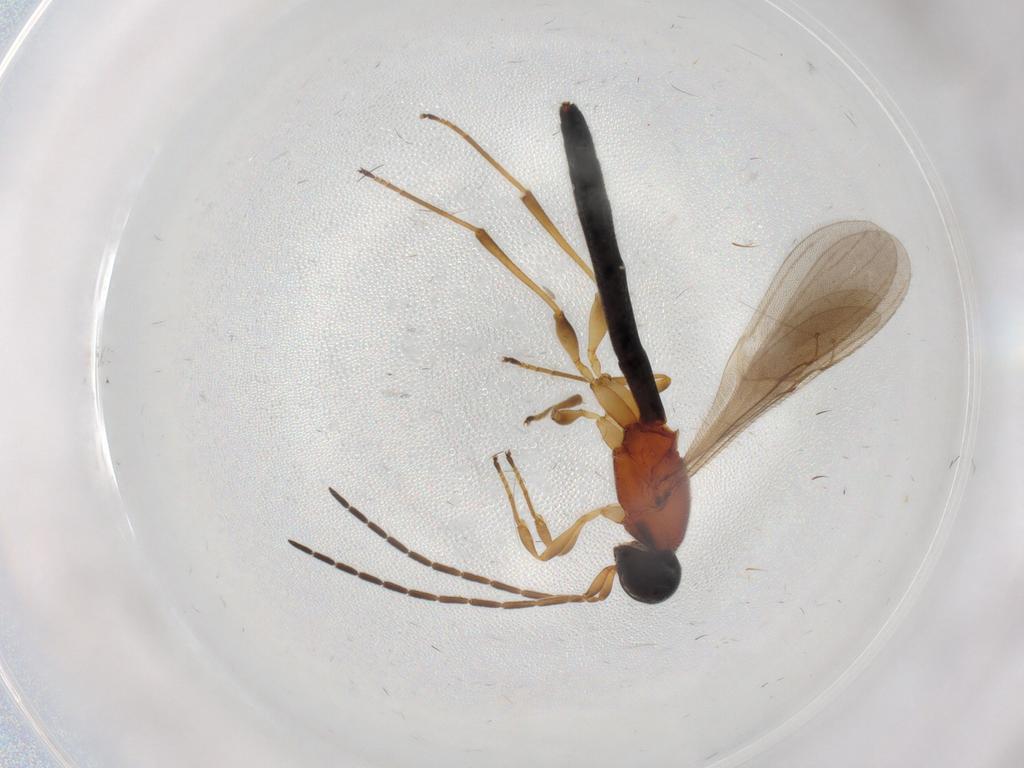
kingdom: Animalia
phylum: Arthropoda
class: Insecta
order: Hymenoptera
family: Scelionidae
